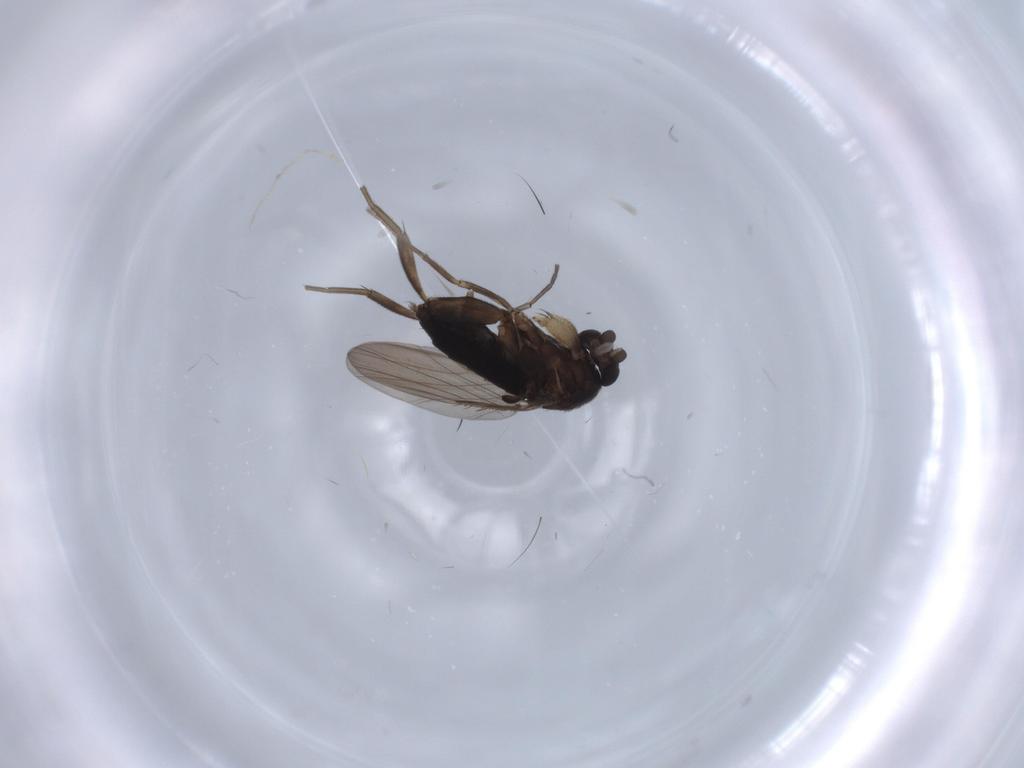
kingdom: Animalia
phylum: Arthropoda
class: Insecta
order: Diptera
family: Phoridae
